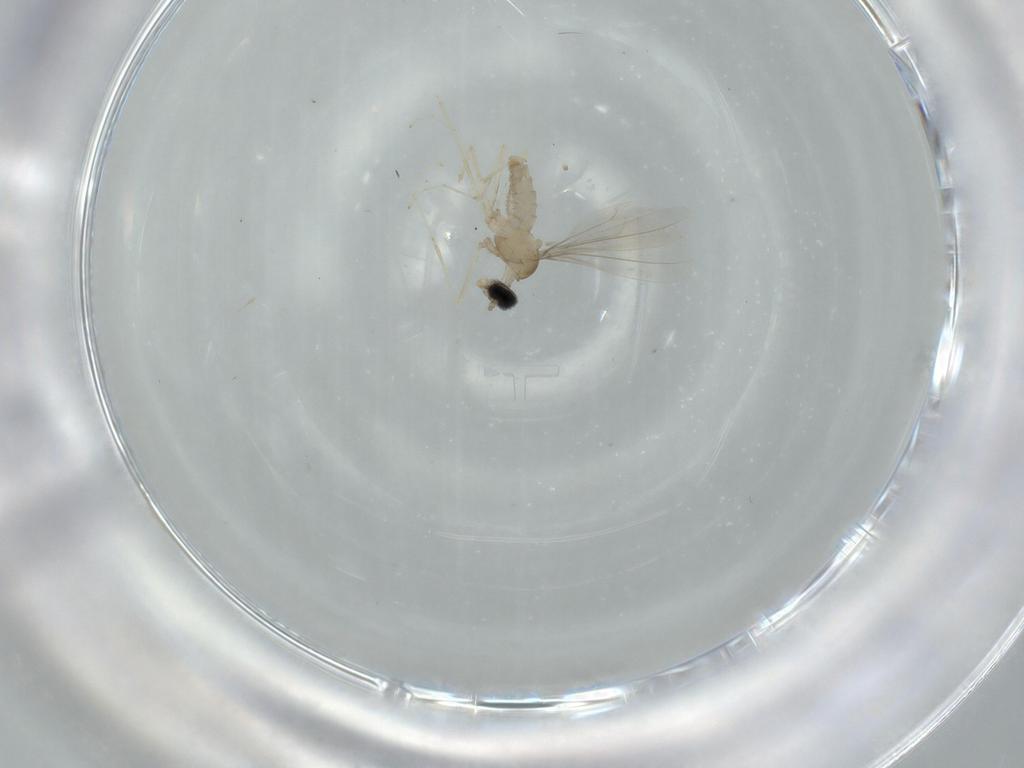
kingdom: Animalia
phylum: Arthropoda
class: Insecta
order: Diptera
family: Cecidomyiidae
